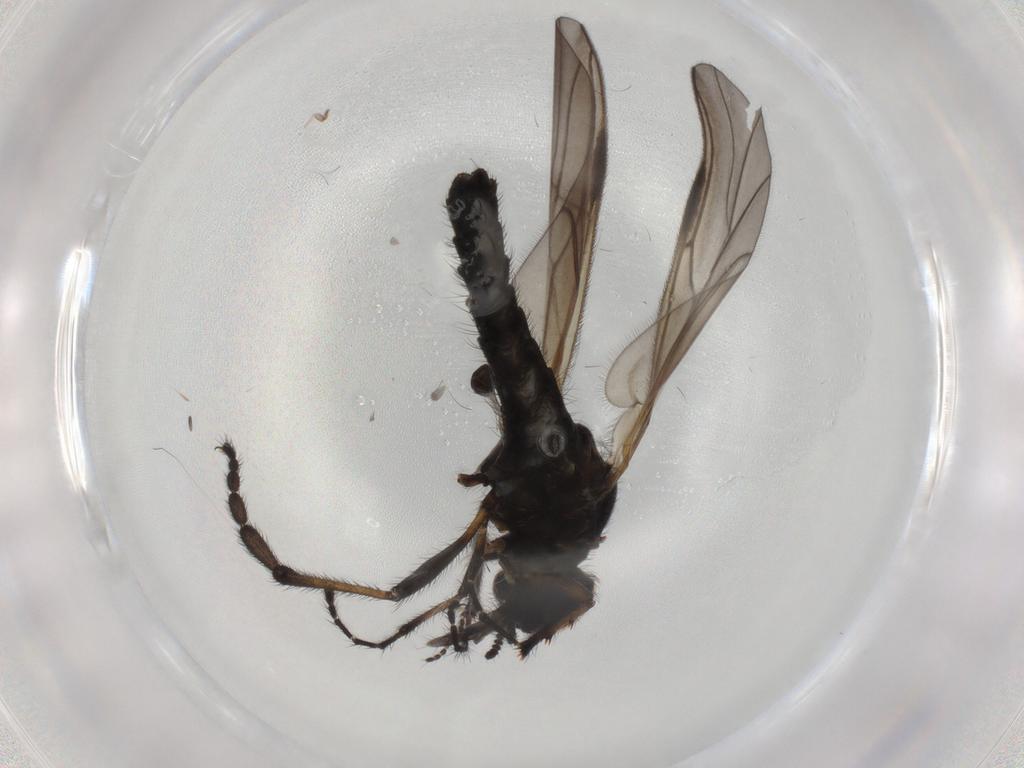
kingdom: Animalia
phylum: Arthropoda
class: Insecta
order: Diptera
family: Bibionidae
